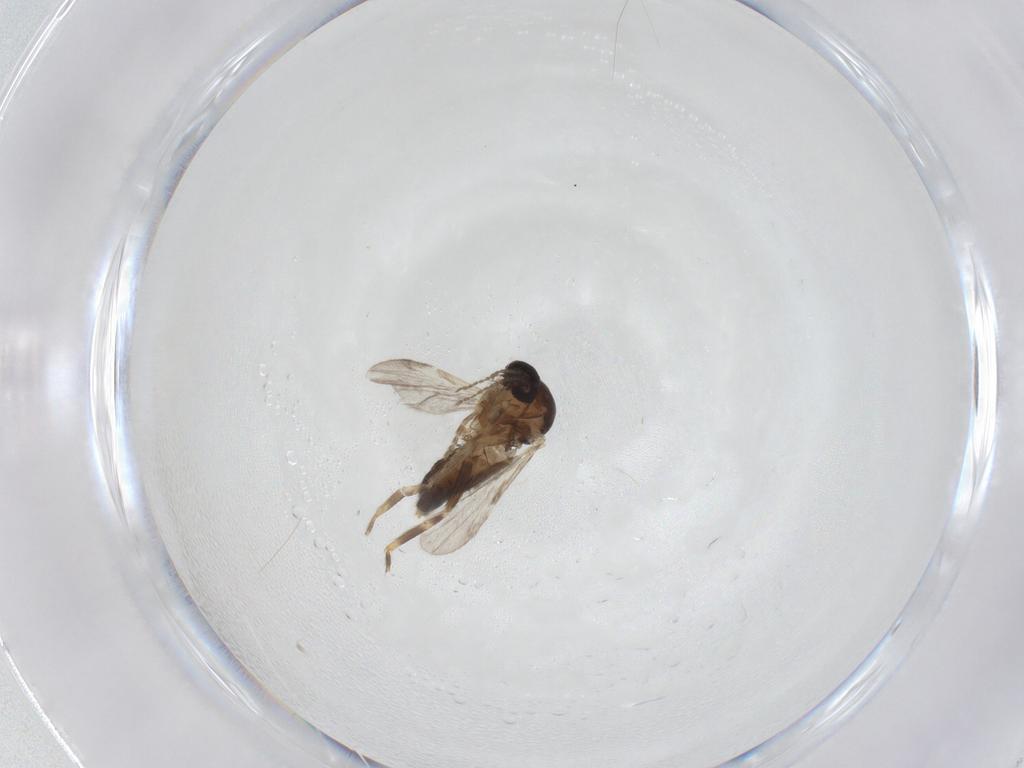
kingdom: Animalia
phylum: Arthropoda
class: Insecta
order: Diptera
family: Ceratopogonidae
